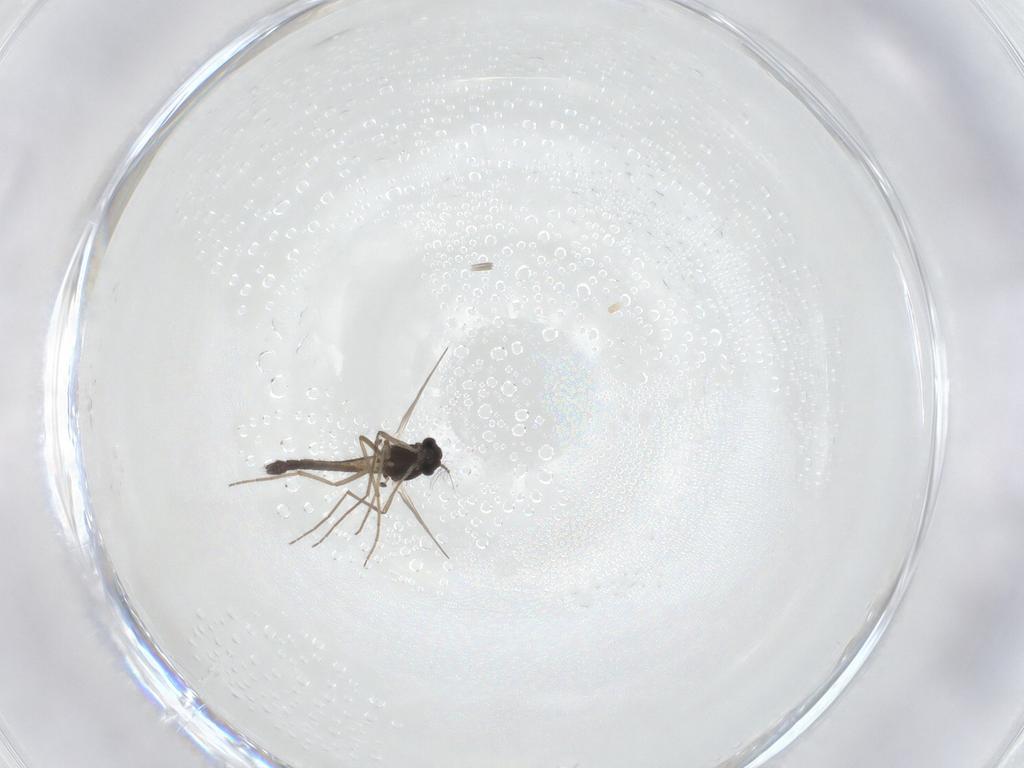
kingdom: Animalia
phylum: Arthropoda
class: Insecta
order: Diptera
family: Chironomidae
